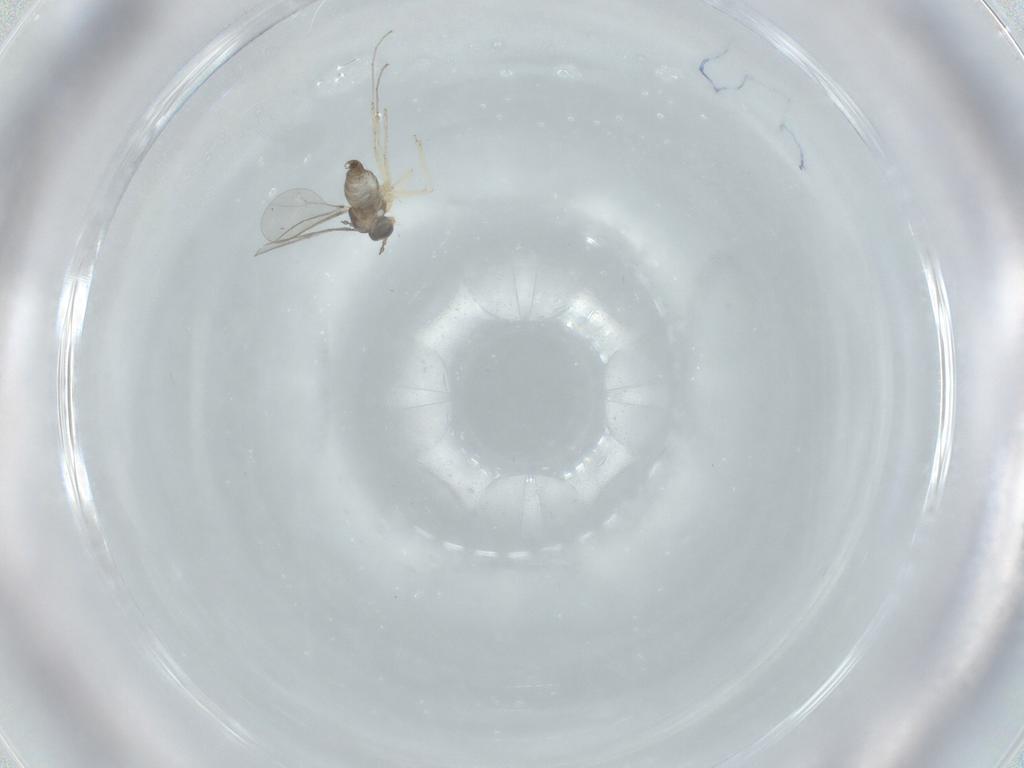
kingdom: Animalia
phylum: Arthropoda
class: Insecta
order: Diptera
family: Cecidomyiidae
